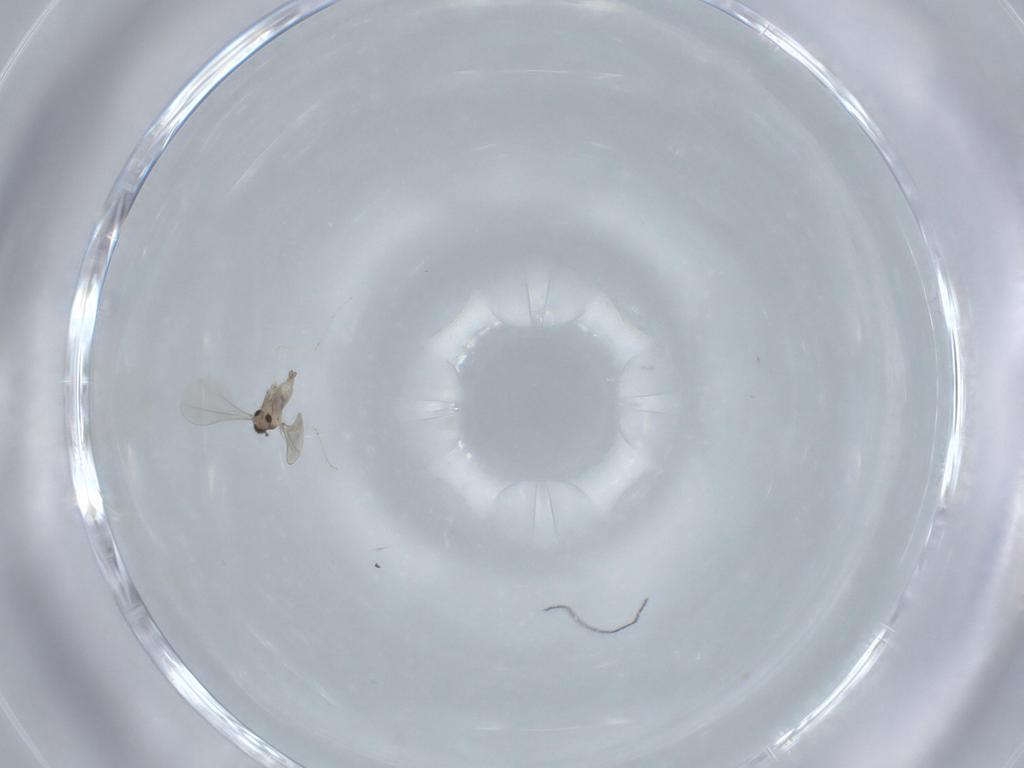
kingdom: Animalia
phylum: Arthropoda
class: Insecta
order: Diptera
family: Cecidomyiidae
